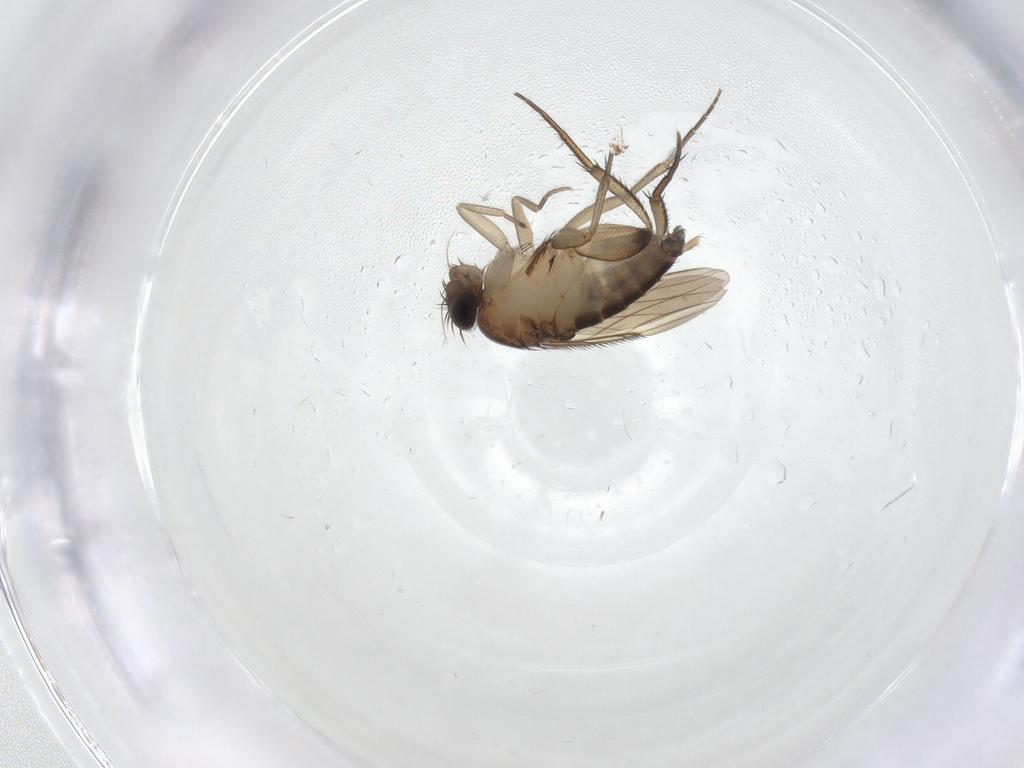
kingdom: Animalia
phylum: Arthropoda
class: Insecta
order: Diptera
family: Phoridae
